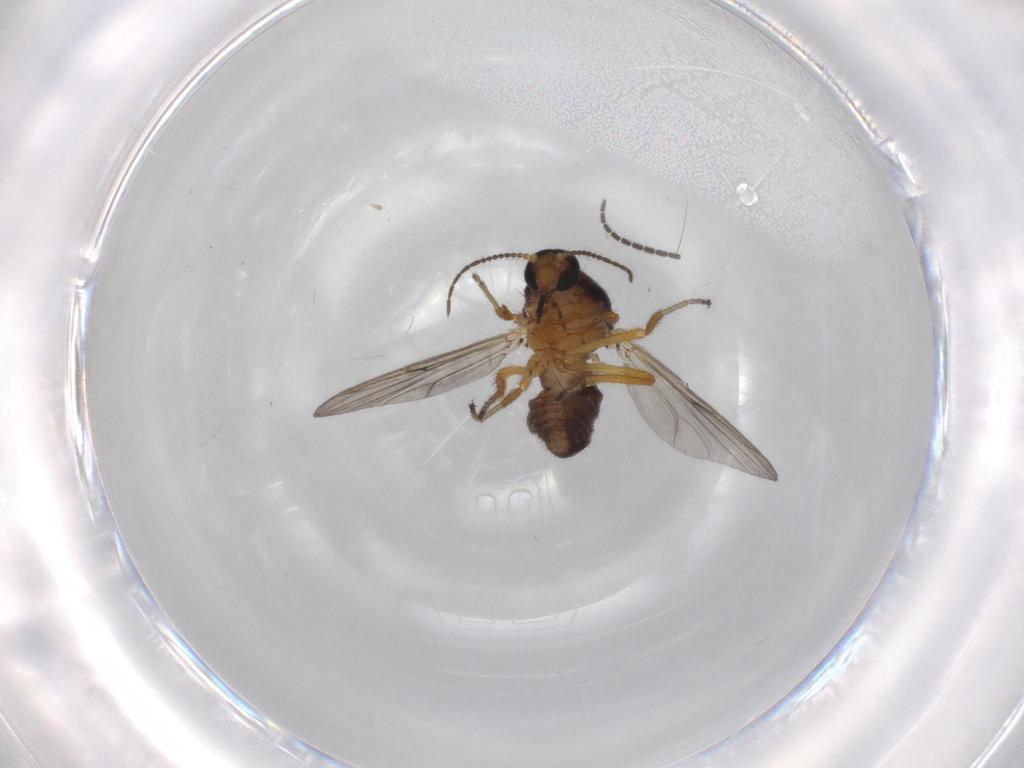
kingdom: Animalia
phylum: Arthropoda
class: Insecta
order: Diptera
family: Ceratopogonidae
